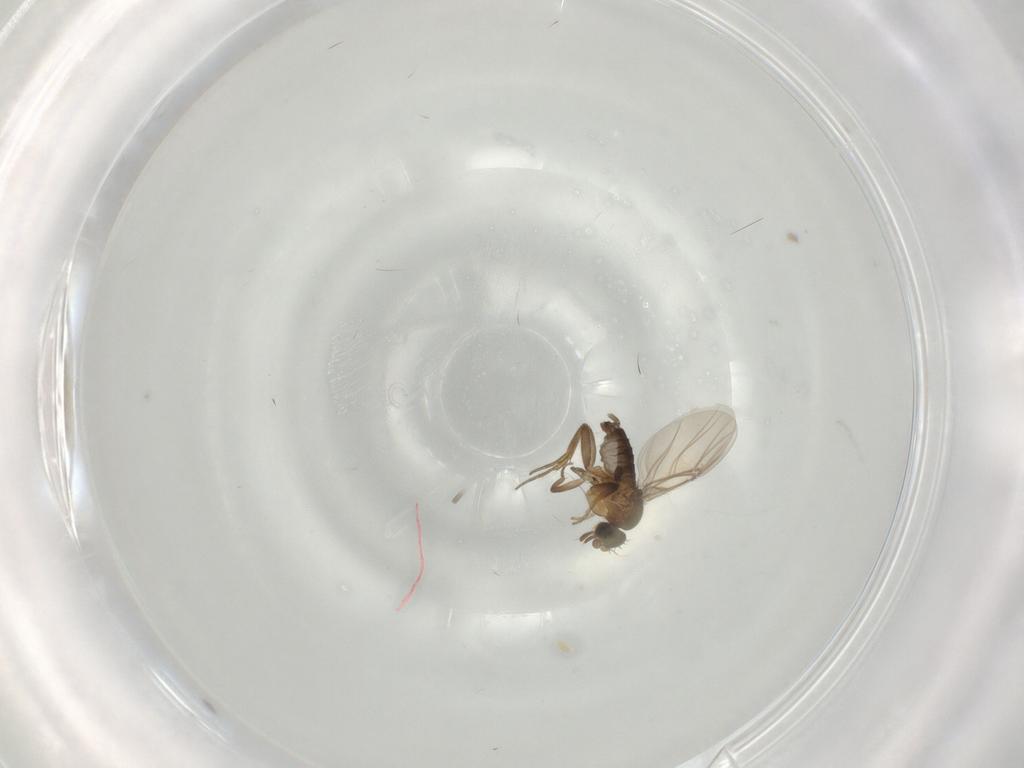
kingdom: Animalia
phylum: Arthropoda
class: Insecta
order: Diptera
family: Phoridae
